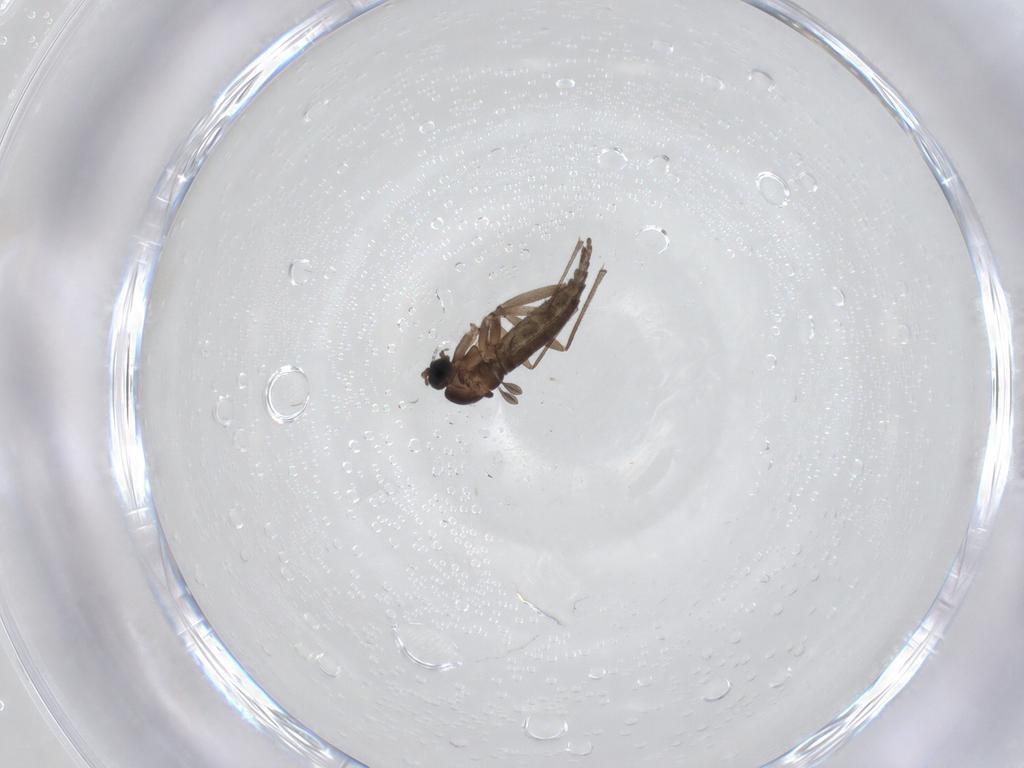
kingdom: Animalia
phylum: Arthropoda
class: Insecta
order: Diptera
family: Sciaridae
